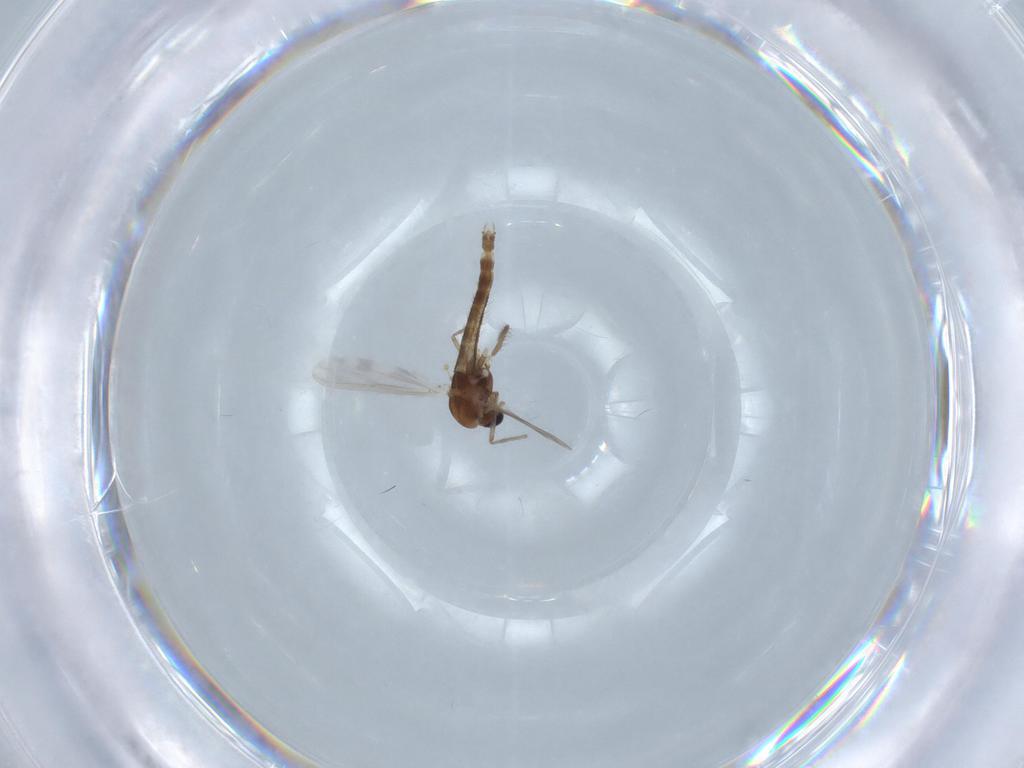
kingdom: Animalia
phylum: Arthropoda
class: Insecta
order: Diptera
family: Chironomidae
